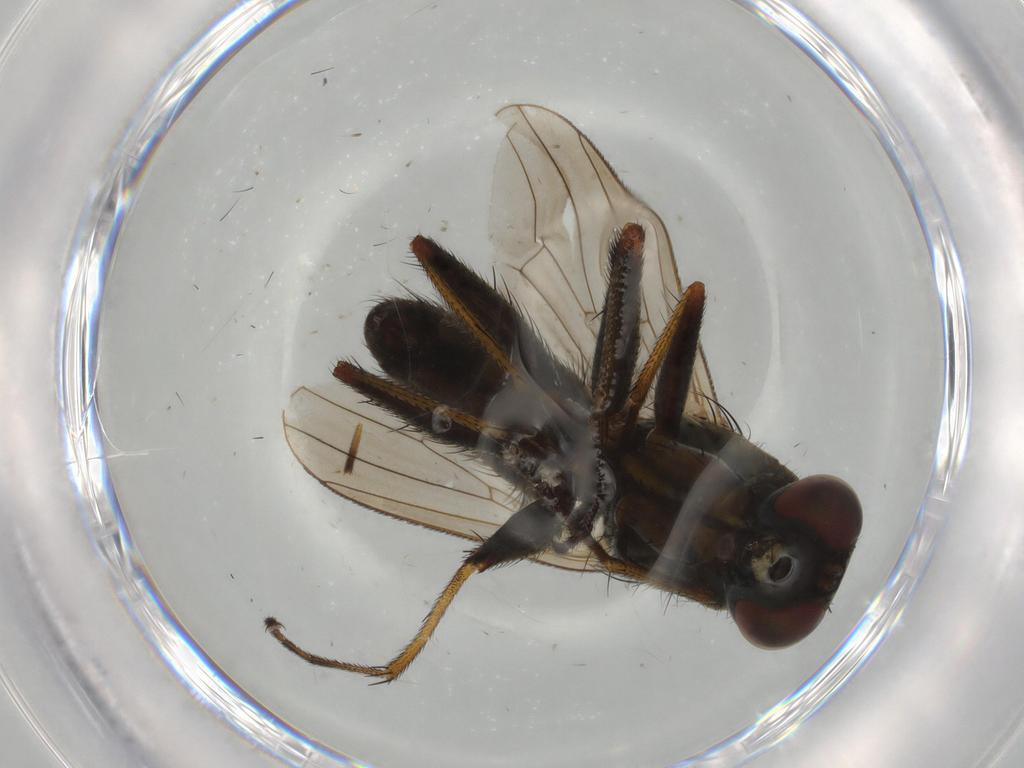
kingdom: Animalia
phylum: Arthropoda
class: Insecta
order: Diptera
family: Muscidae
